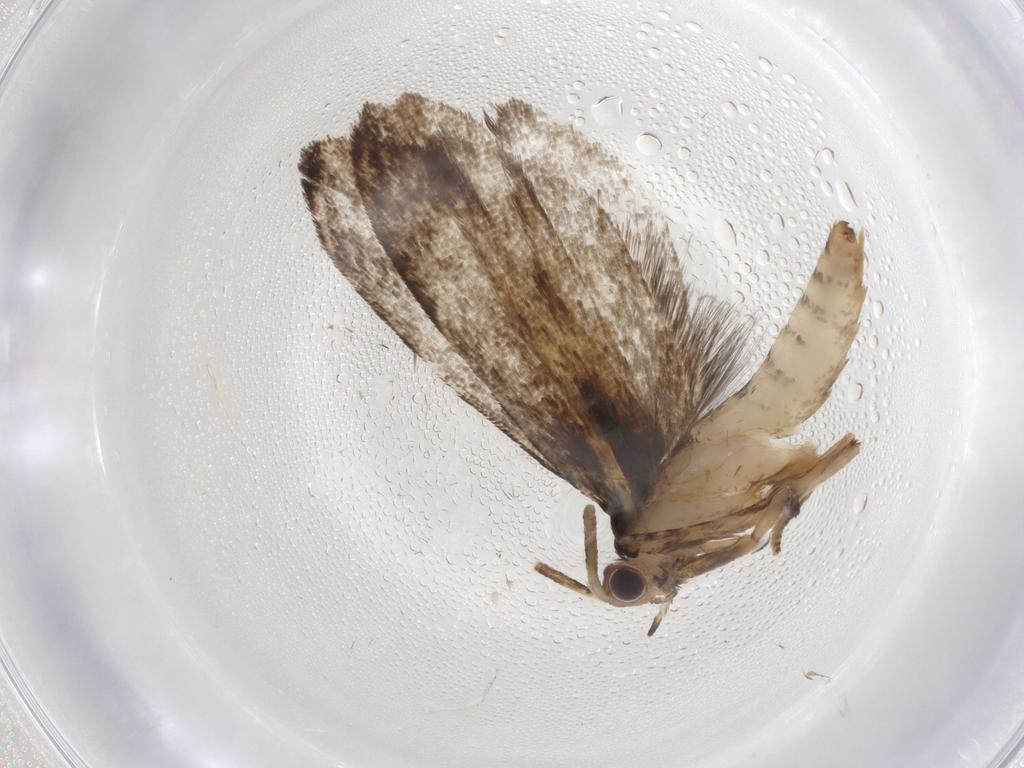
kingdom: Animalia
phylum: Arthropoda
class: Insecta
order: Lepidoptera
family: Tineidae
